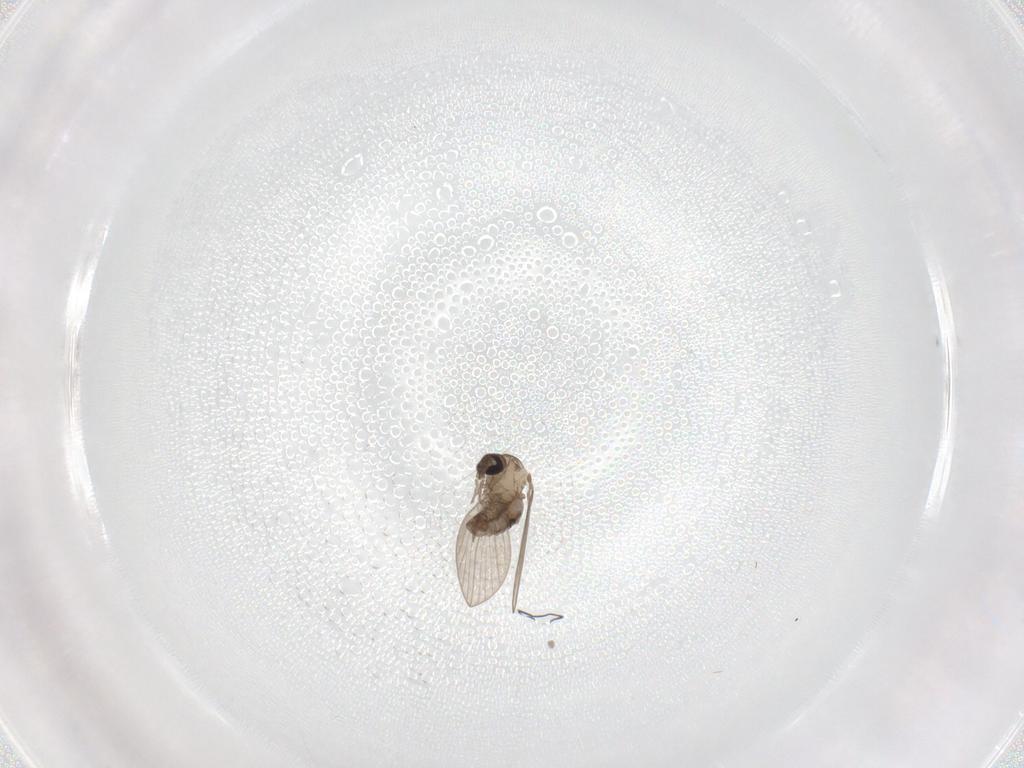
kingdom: Animalia
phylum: Arthropoda
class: Insecta
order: Diptera
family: Psychodidae
